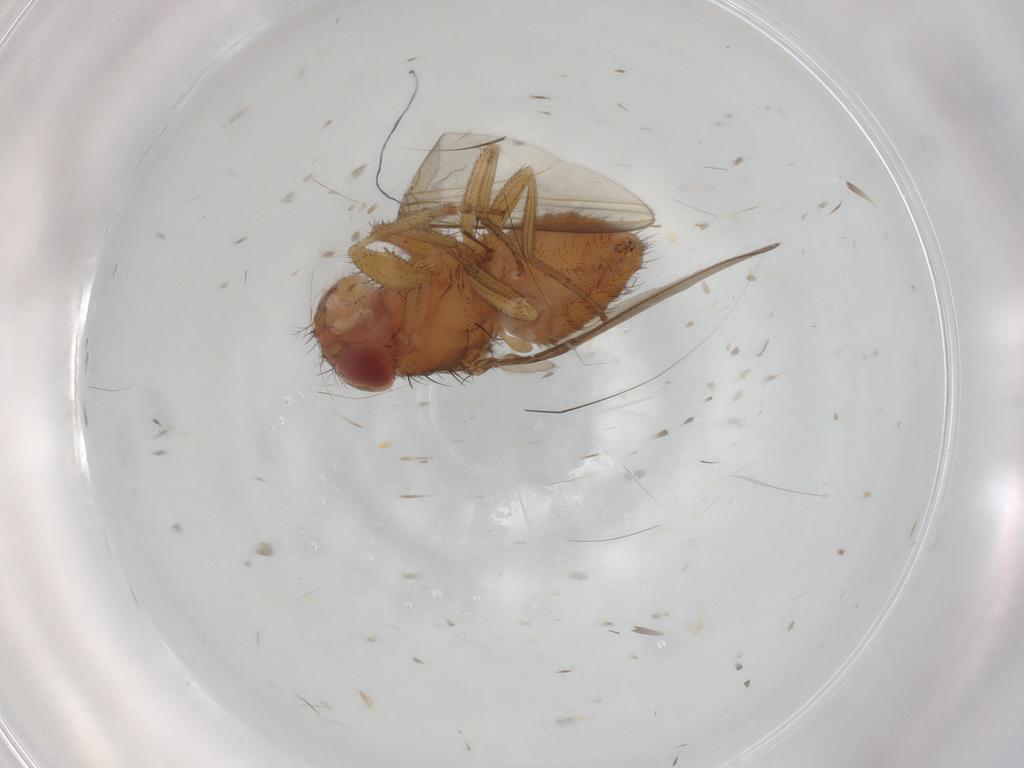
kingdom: Animalia
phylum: Arthropoda
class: Insecta
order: Diptera
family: Drosophilidae
